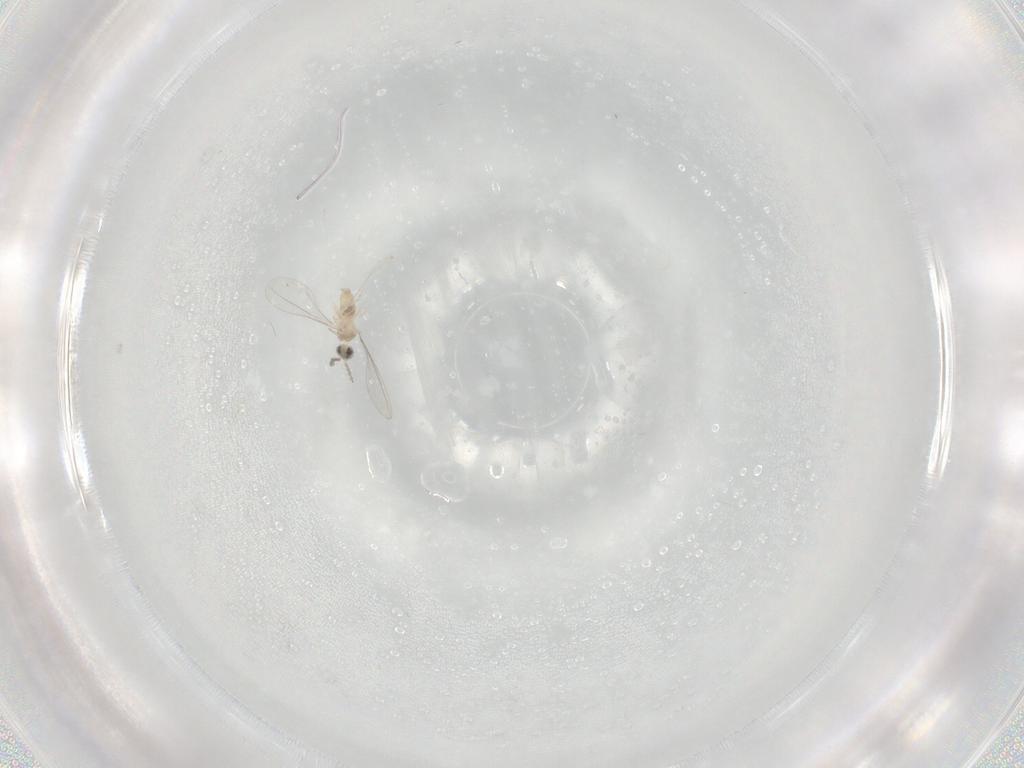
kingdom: Animalia
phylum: Arthropoda
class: Insecta
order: Diptera
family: Cecidomyiidae
